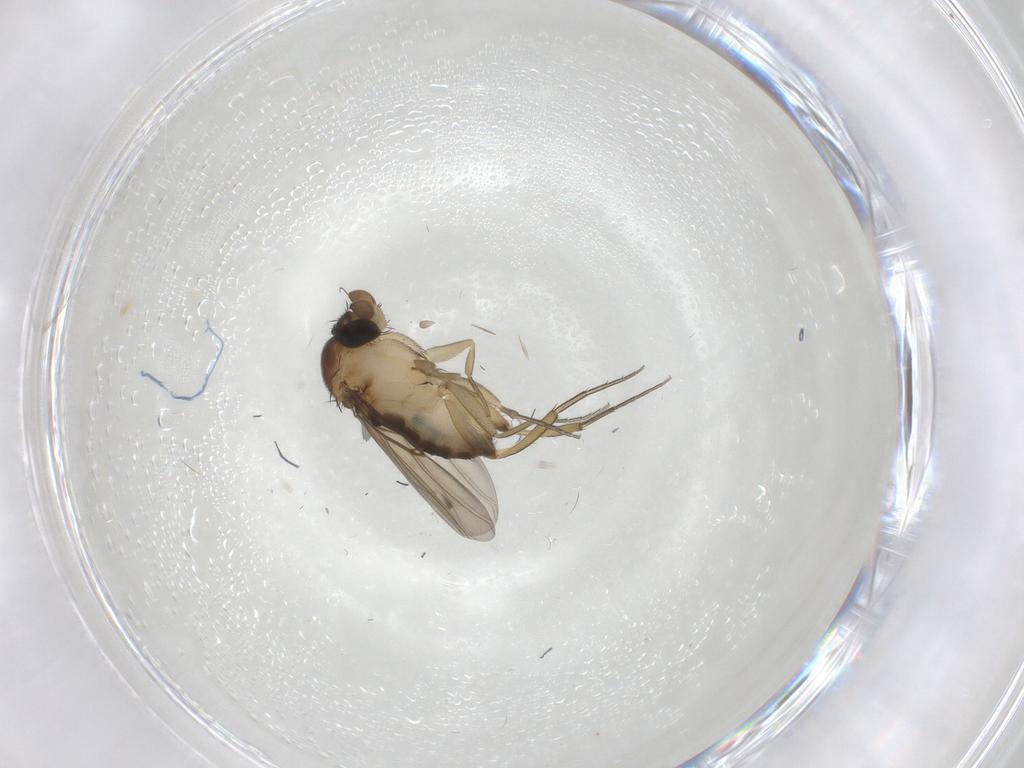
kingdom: Animalia
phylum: Arthropoda
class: Insecta
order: Diptera
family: Phoridae
